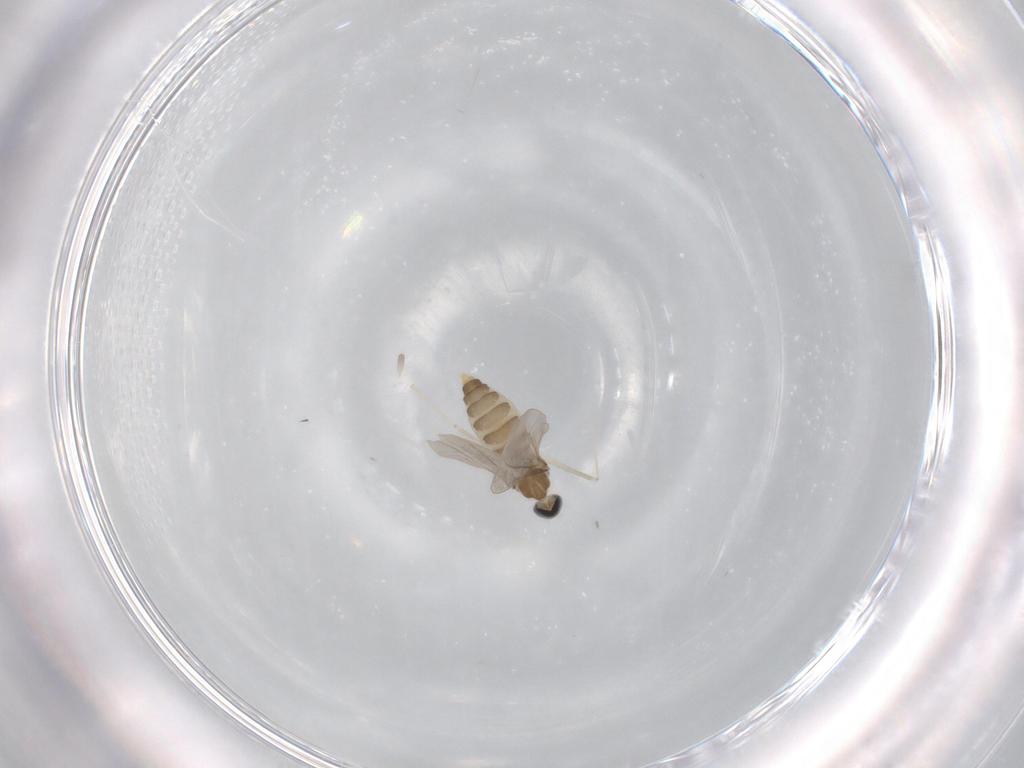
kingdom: Animalia
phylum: Arthropoda
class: Insecta
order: Diptera
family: Cecidomyiidae
